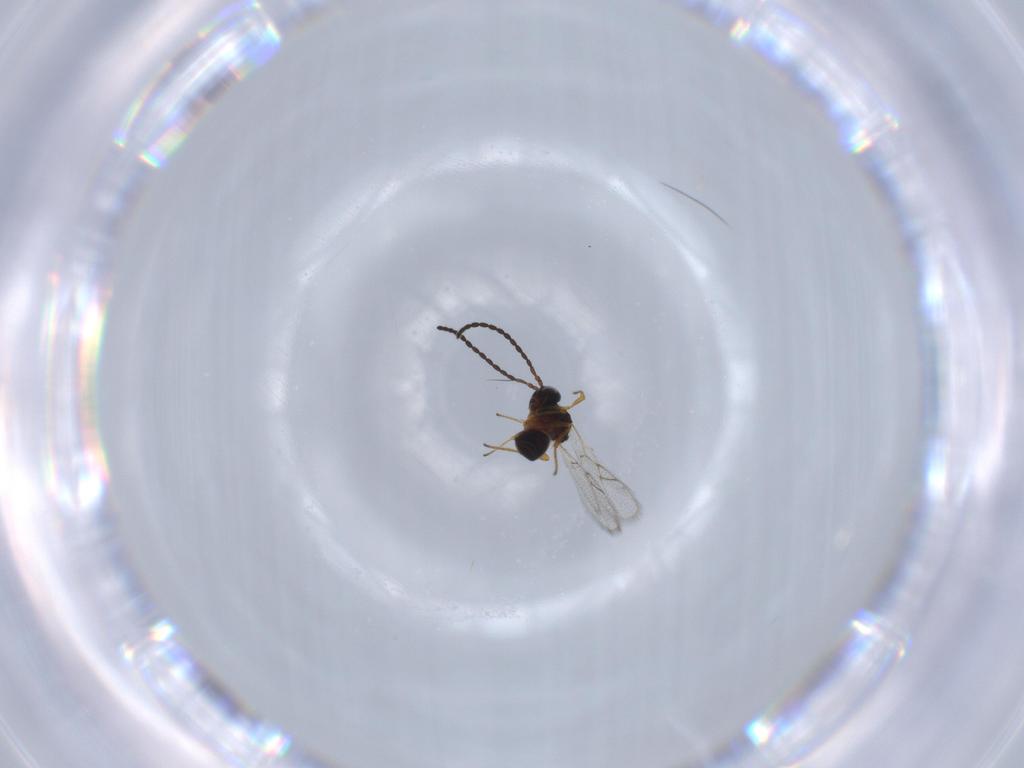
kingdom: Animalia
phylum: Arthropoda
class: Insecta
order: Hymenoptera
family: Figitidae
